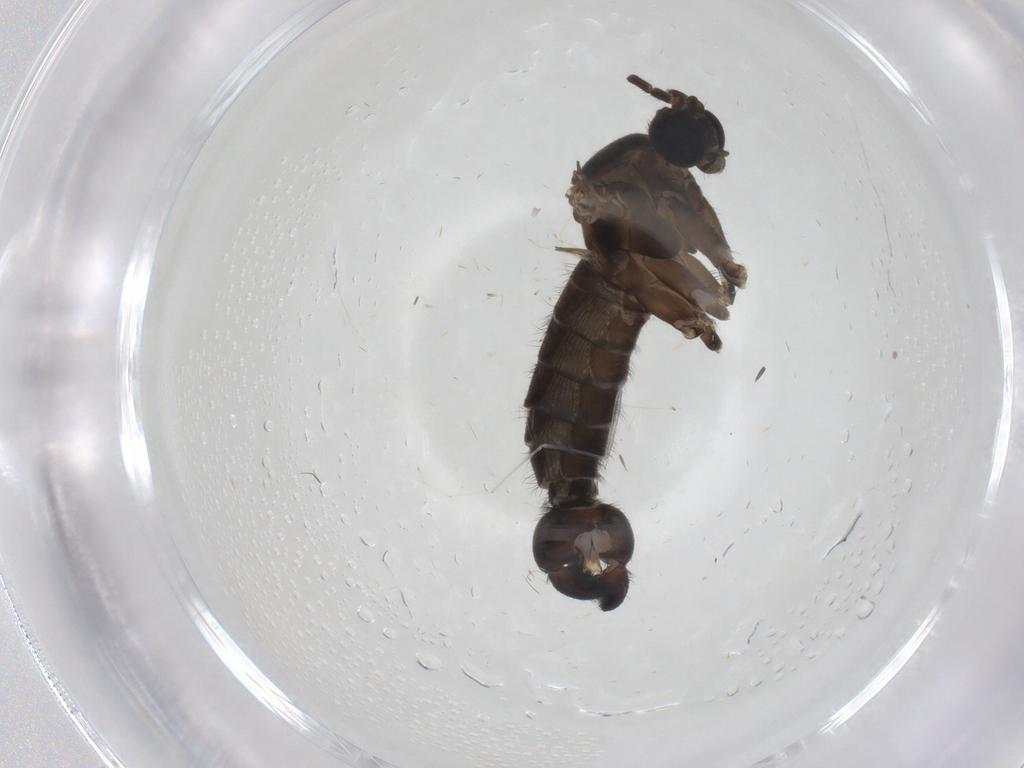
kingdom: Animalia
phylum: Arthropoda
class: Insecta
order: Diptera
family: Sciaridae
